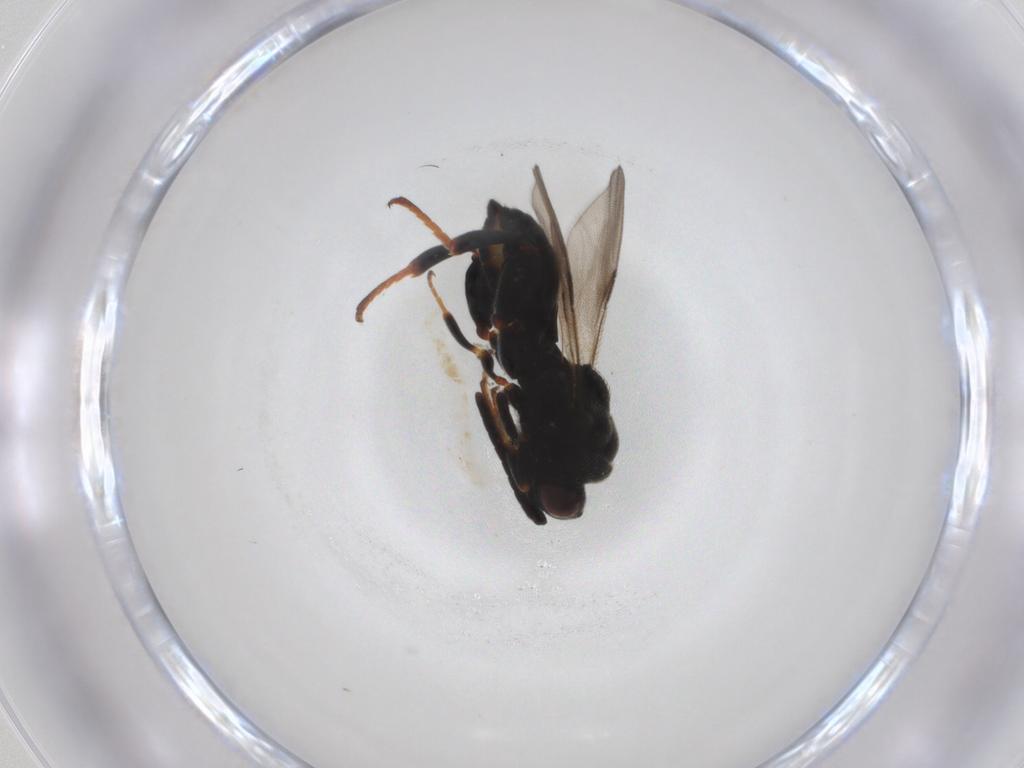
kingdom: Animalia
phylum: Arthropoda
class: Insecta
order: Hymenoptera
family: Chalcididae
